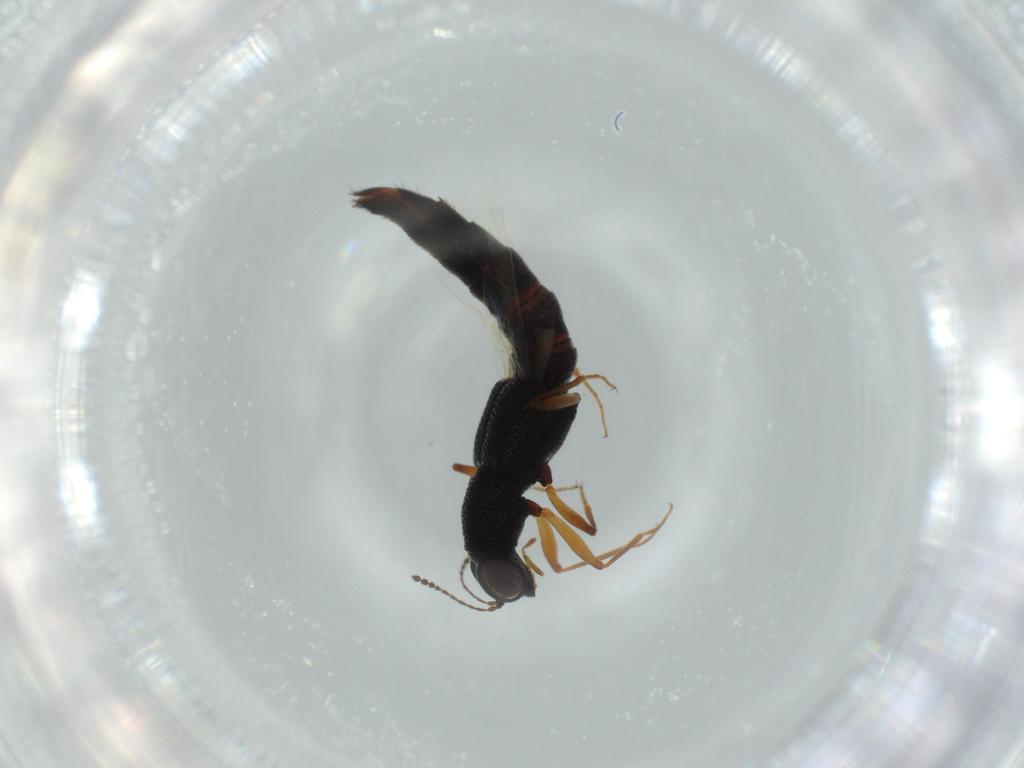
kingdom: Animalia
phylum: Arthropoda
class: Insecta
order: Coleoptera
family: Staphylinidae
